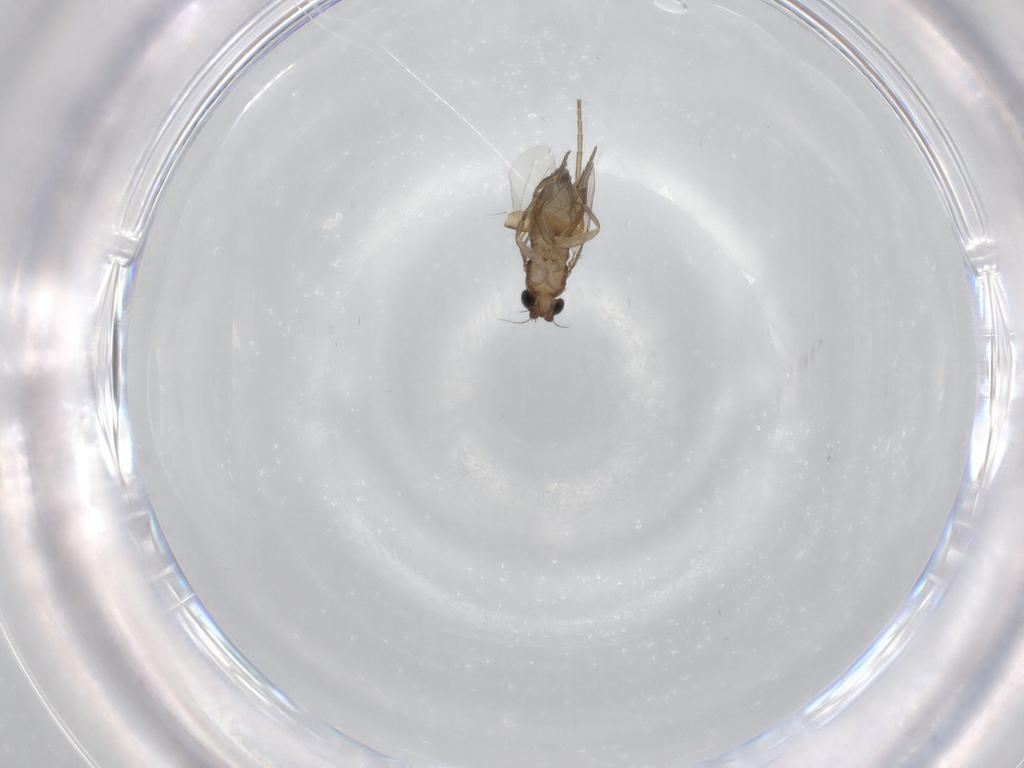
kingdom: Animalia
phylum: Arthropoda
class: Insecta
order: Diptera
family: Phoridae
